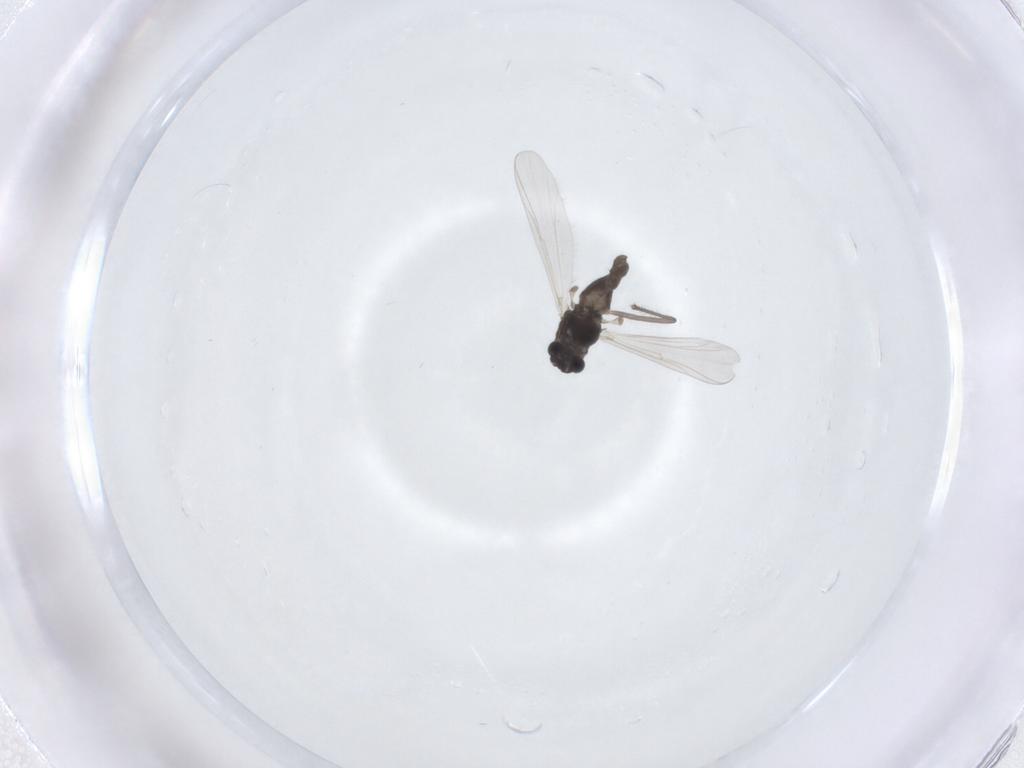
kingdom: Animalia
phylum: Arthropoda
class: Insecta
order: Diptera
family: Chironomidae
